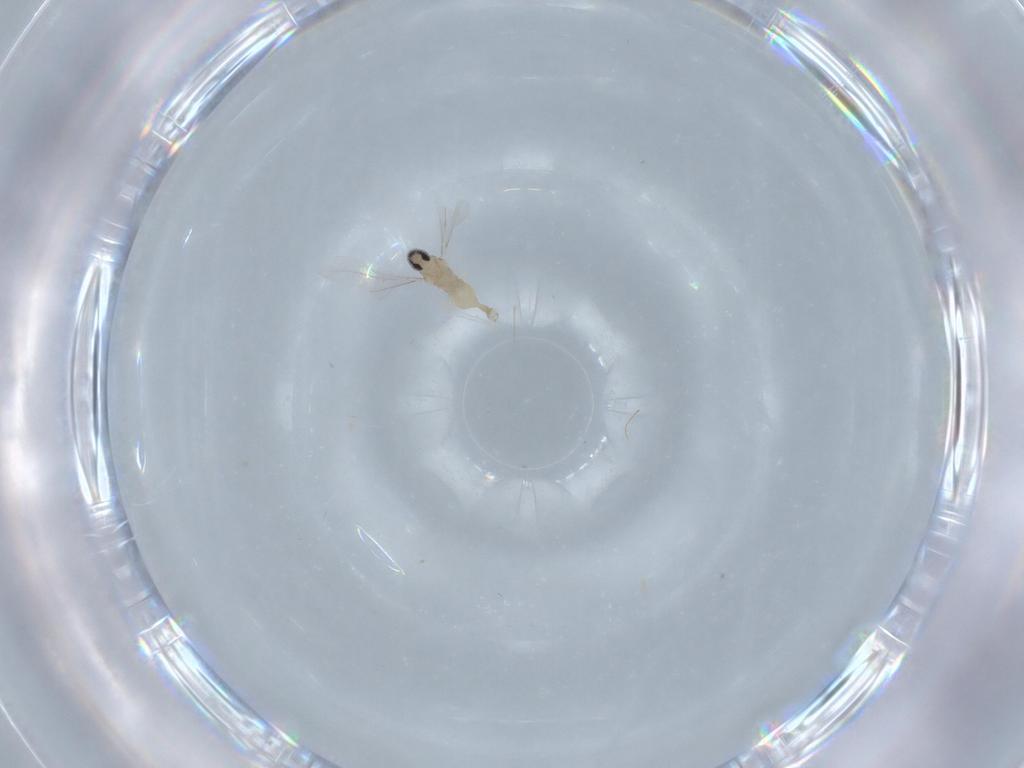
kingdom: Animalia
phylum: Arthropoda
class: Insecta
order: Diptera
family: Cecidomyiidae
